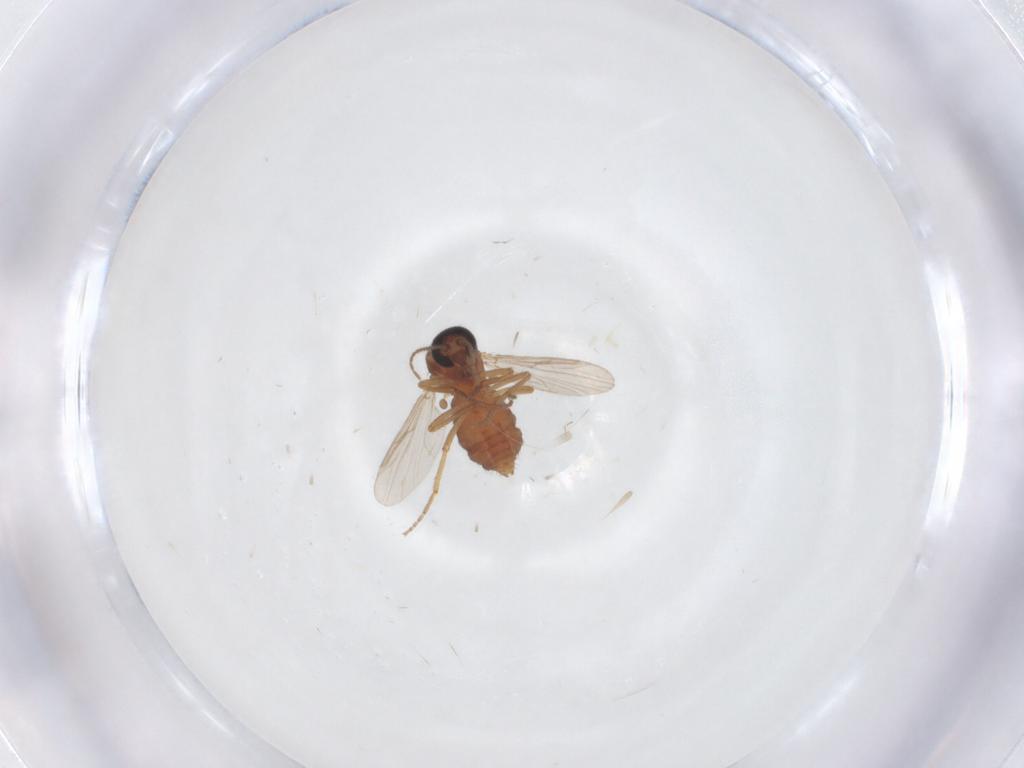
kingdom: Animalia
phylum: Arthropoda
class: Insecta
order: Diptera
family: Ceratopogonidae
